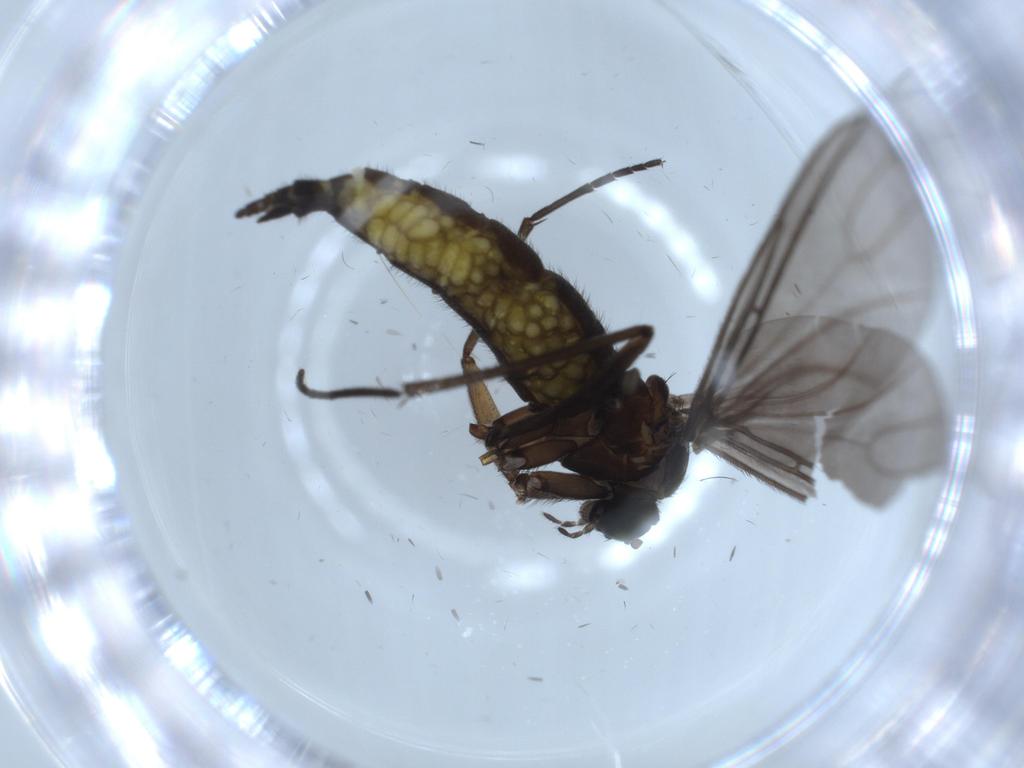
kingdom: Animalia
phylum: Arthropoda
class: Insecta
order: Diptera
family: Sciaridae
